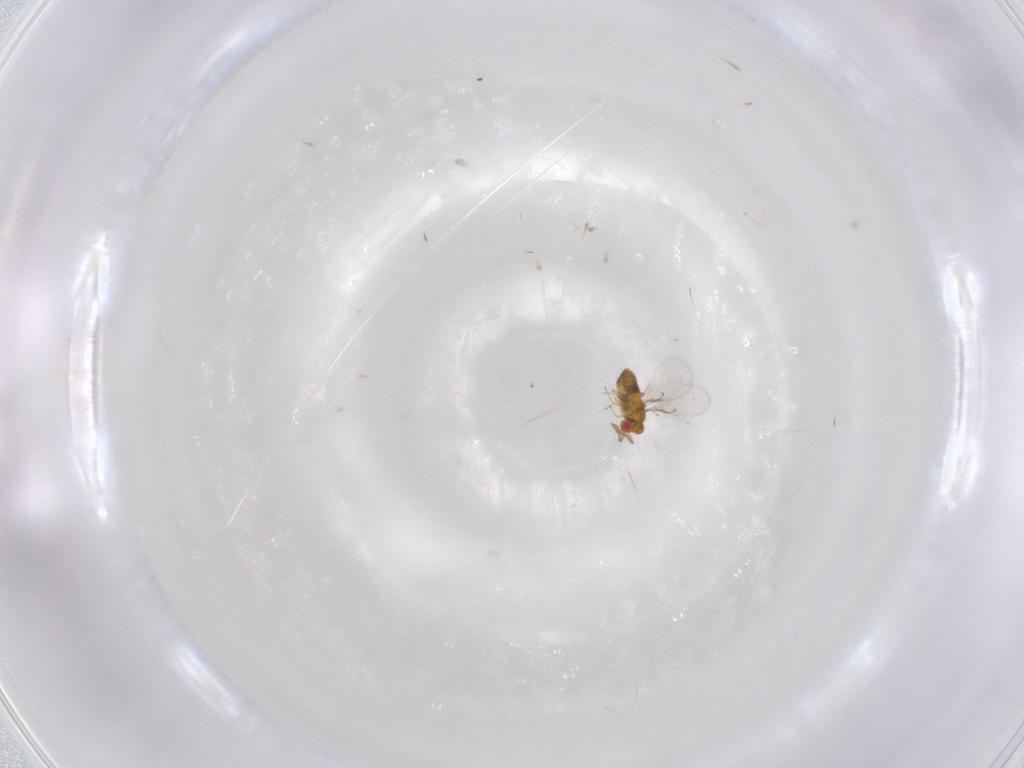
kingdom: Animalia
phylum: Arthropoda
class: Insecta
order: Hymenoptera
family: Trichogrammatidae
